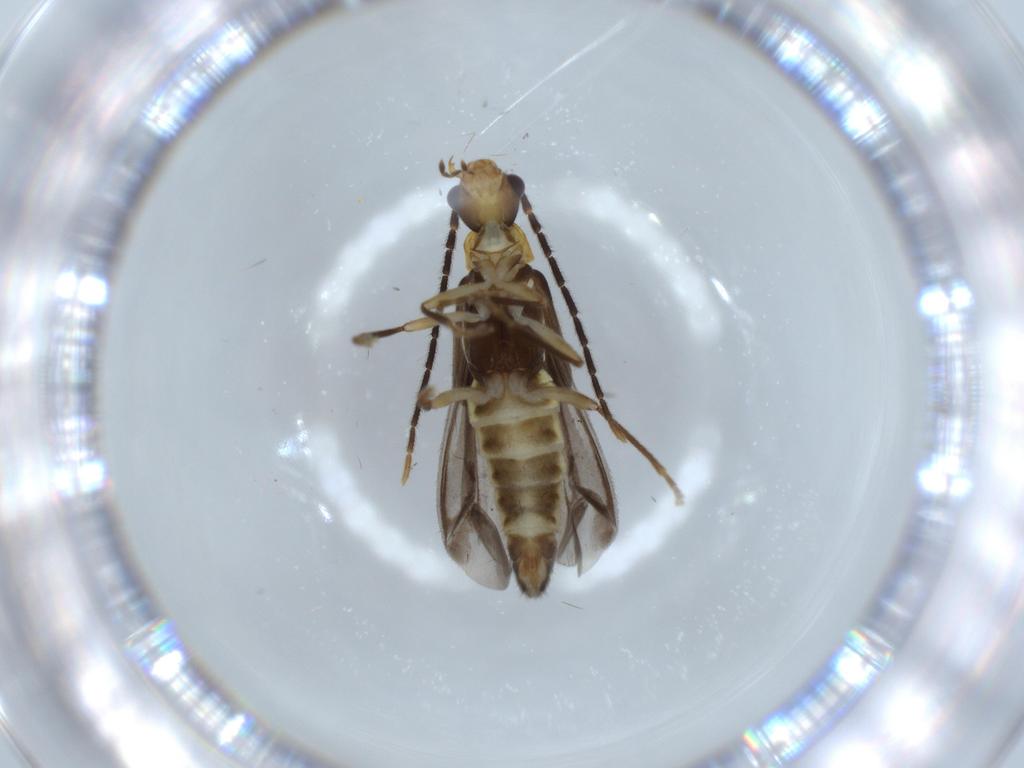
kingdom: Animalia
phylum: Arthropoda
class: Insecta
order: Coleoptera
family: Cantharidae
